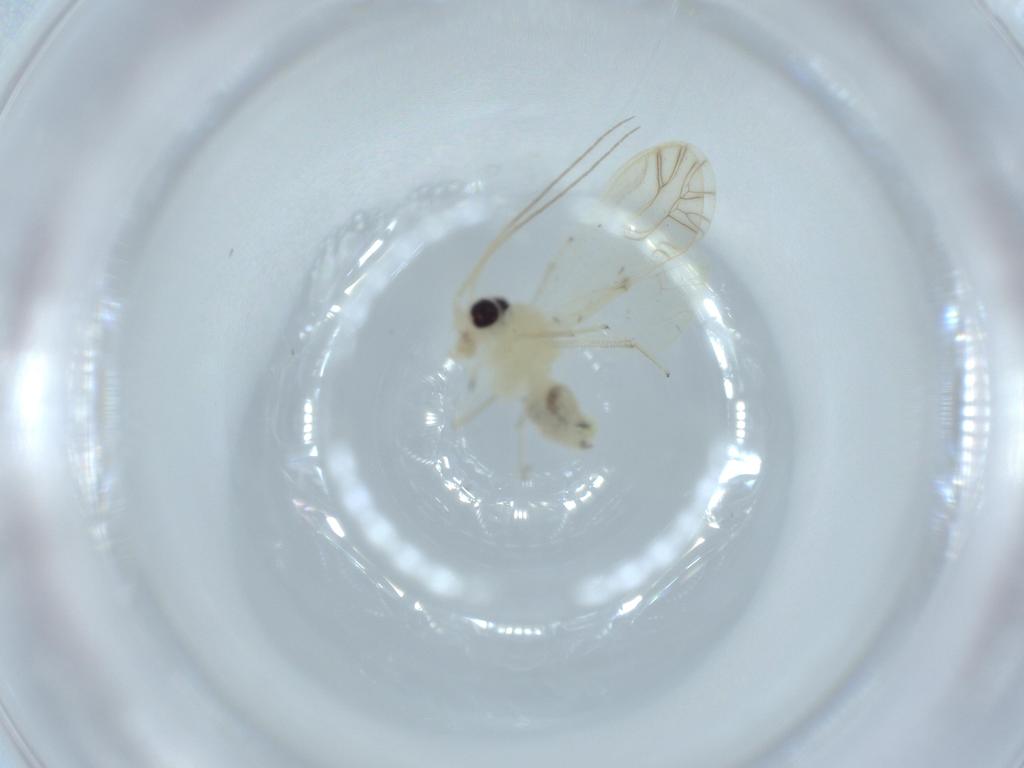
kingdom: Animalia
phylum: Arthropoda
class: Insecta
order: Psocodea
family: Caeciliusidae
